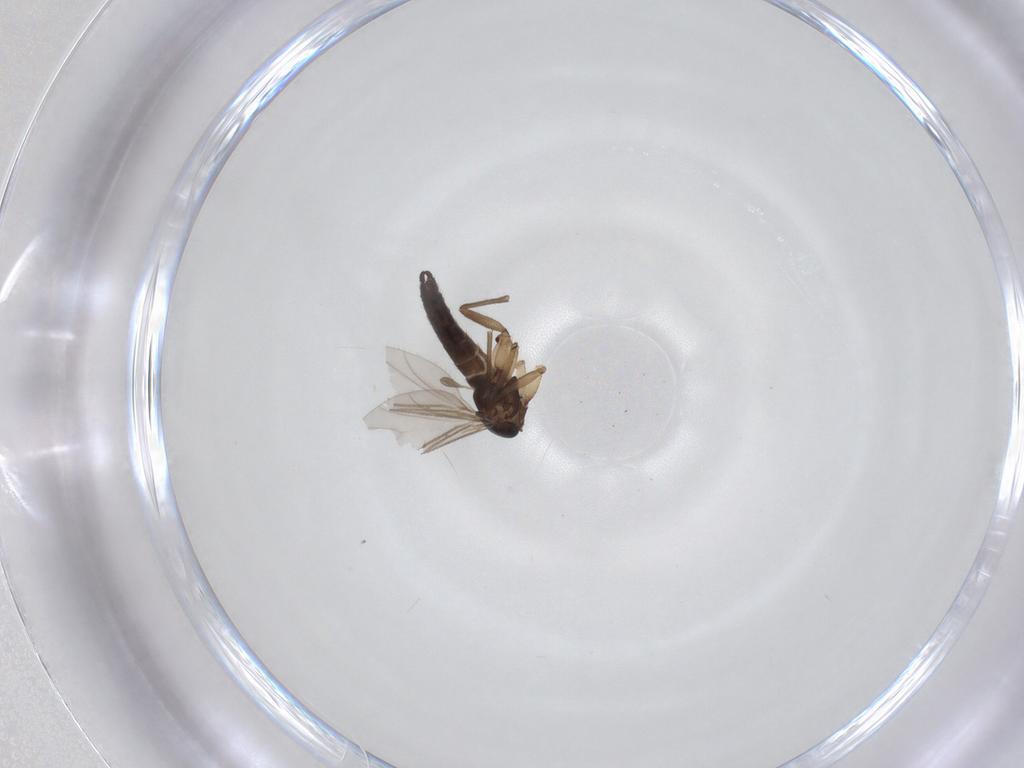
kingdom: Animalia
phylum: Arthropoda
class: Insecta
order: Diptera
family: Sciaridae
